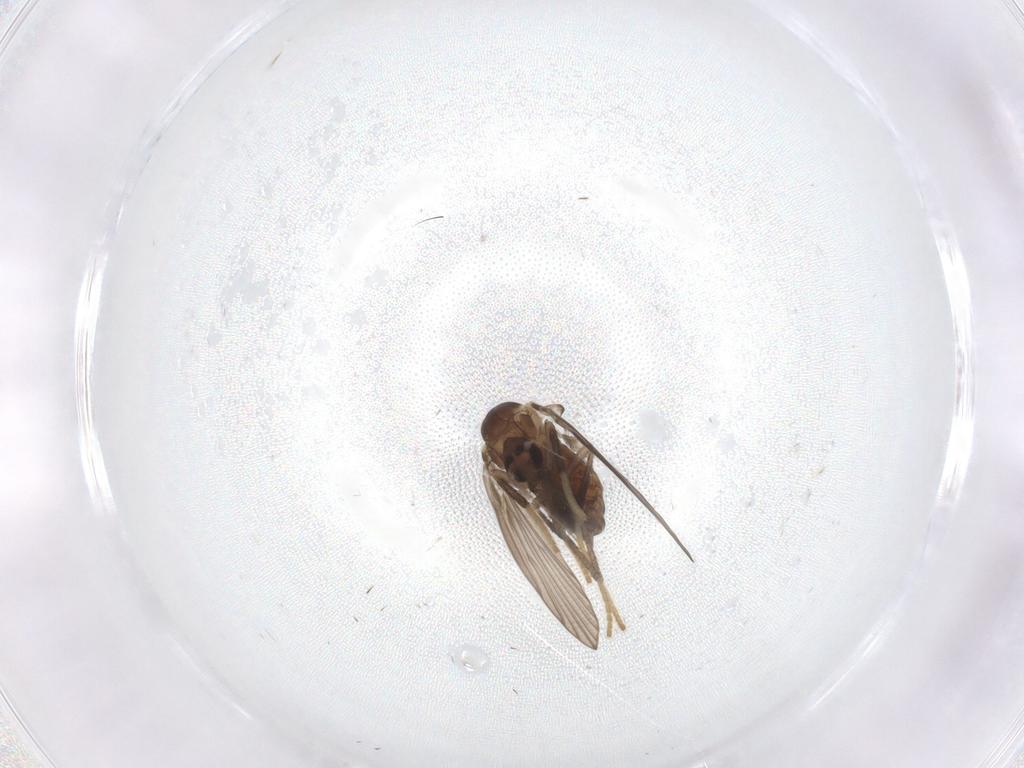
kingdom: Animalia
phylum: Arthropoda
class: Insecta
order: Diptera
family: Psychodidae
